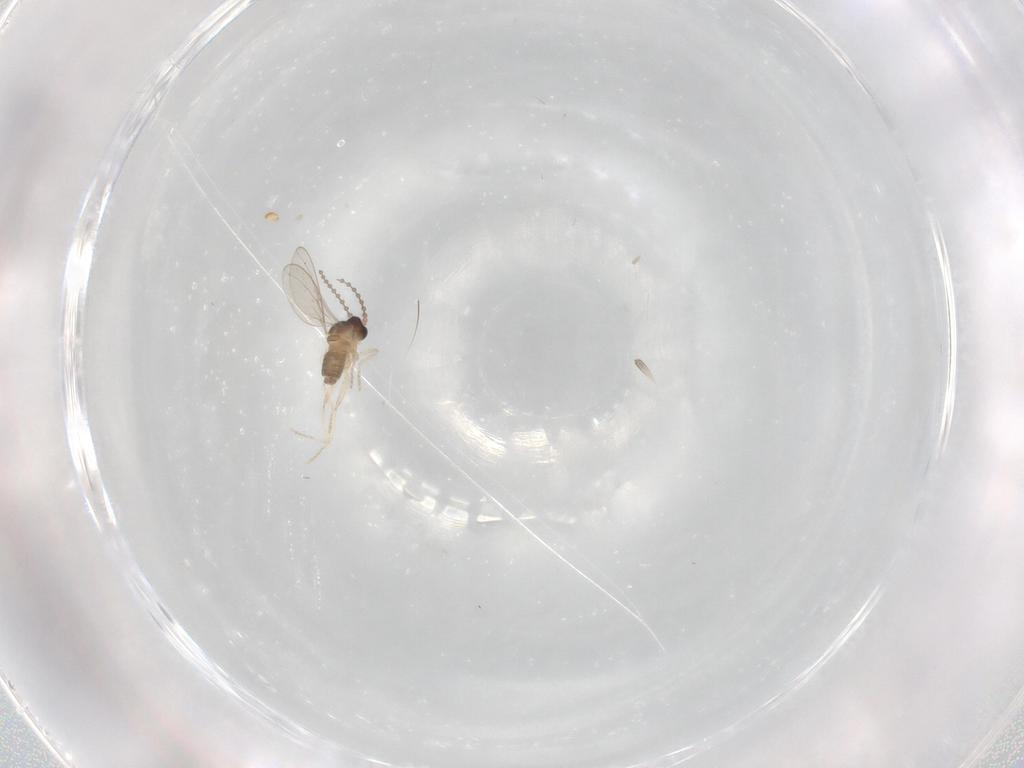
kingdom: Animalia
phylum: Arthropoda
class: Insecta
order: Diptera
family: Cecidomyiidae
